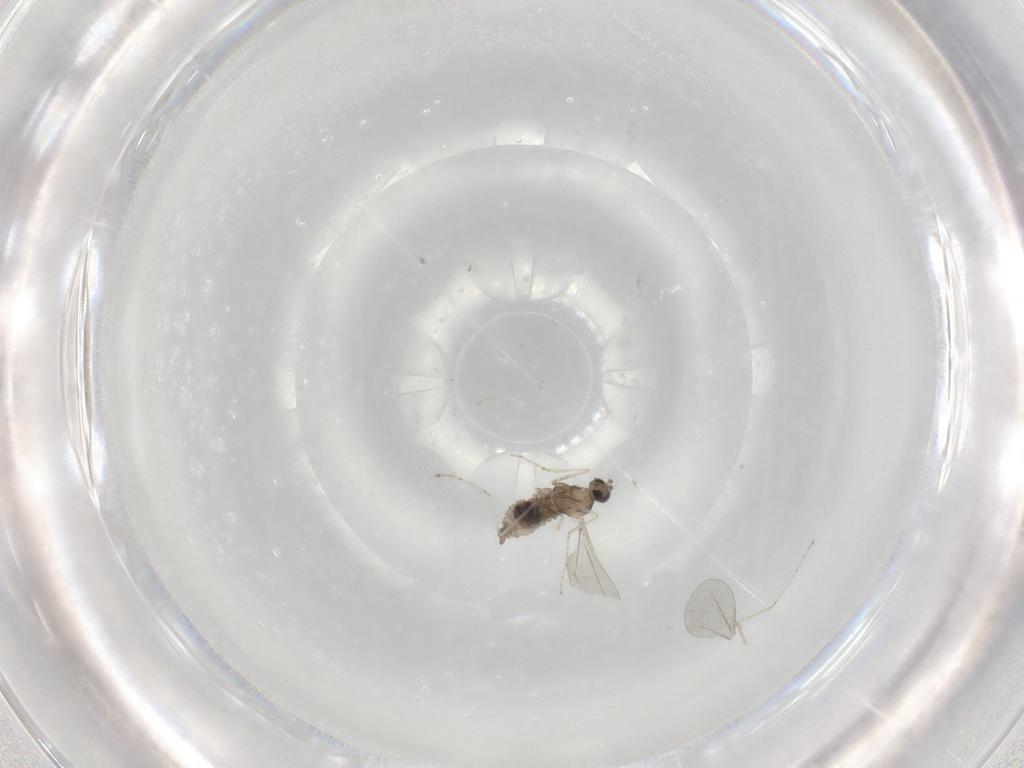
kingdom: Animalia
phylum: Arthropoda
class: Insecta
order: Diptera
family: Cecidomyiidae
